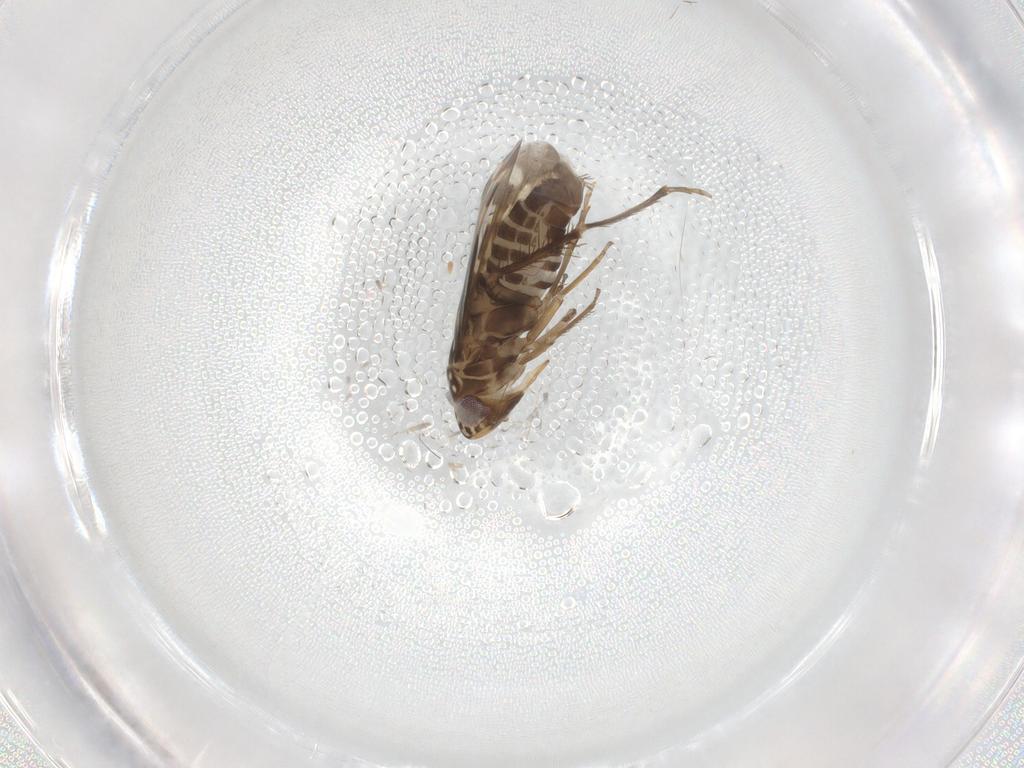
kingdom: Animalia
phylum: Arthropoda
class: Insecta
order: Hemiptera
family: Cicadellidae
